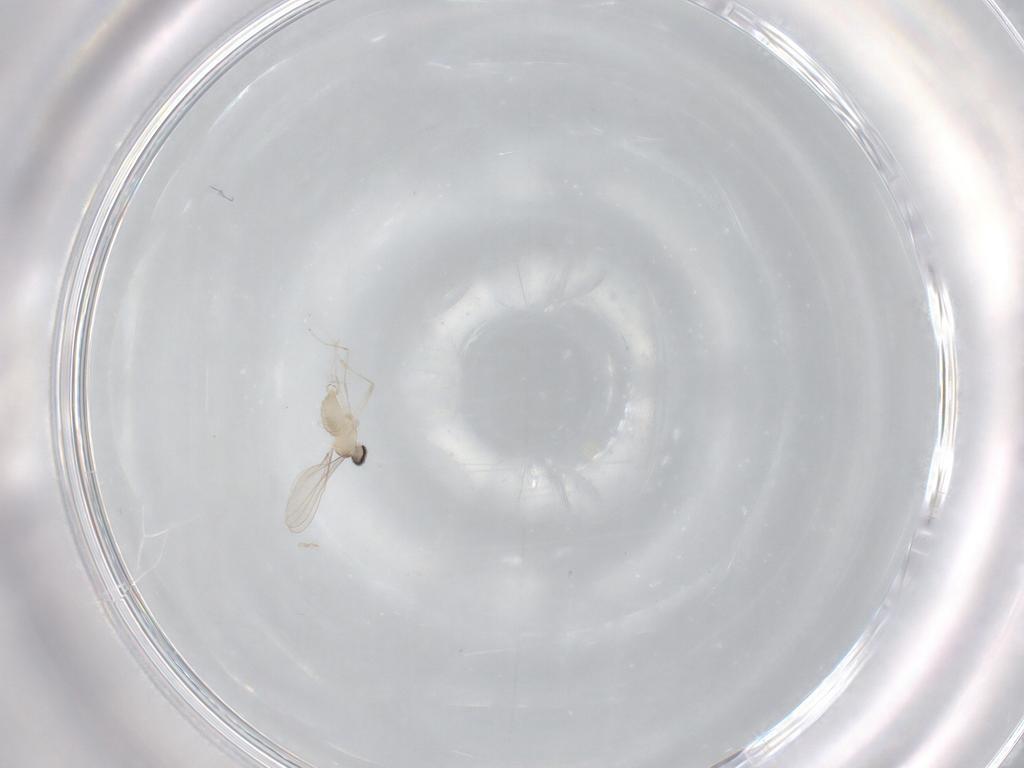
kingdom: Animalia
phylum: Arthropoda
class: Insecta
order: Diptera
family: Cecidomyiidae
